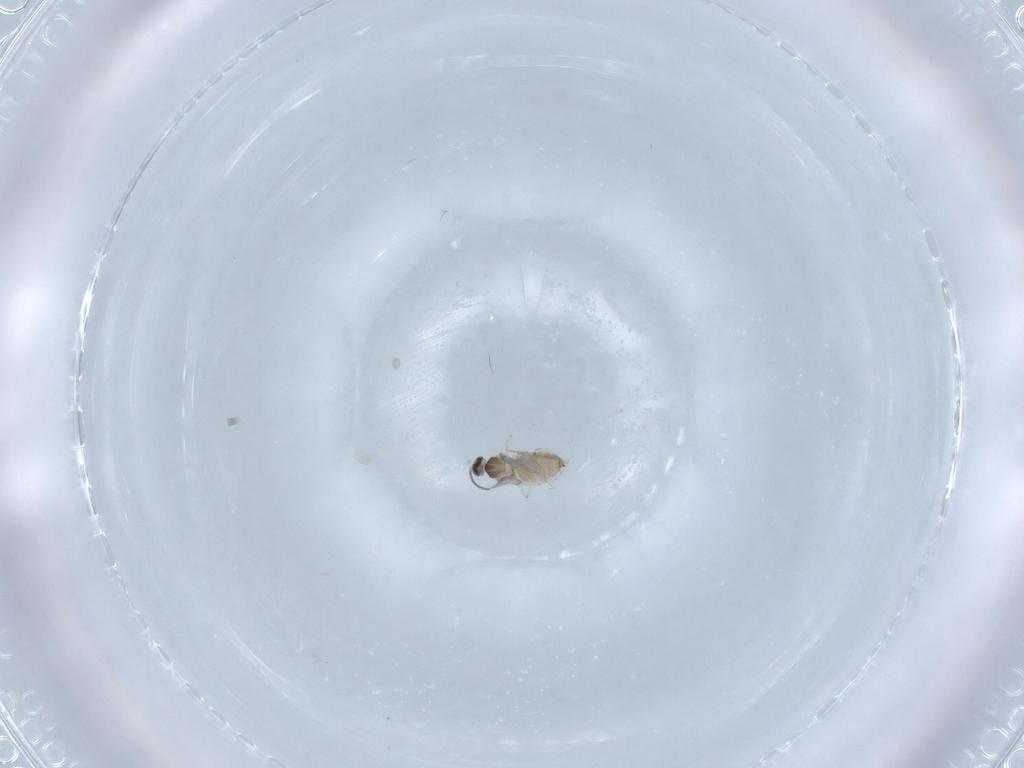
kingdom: Animalia
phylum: Arthropoda
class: Insecta
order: Diptera
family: Cecidomyiidae
